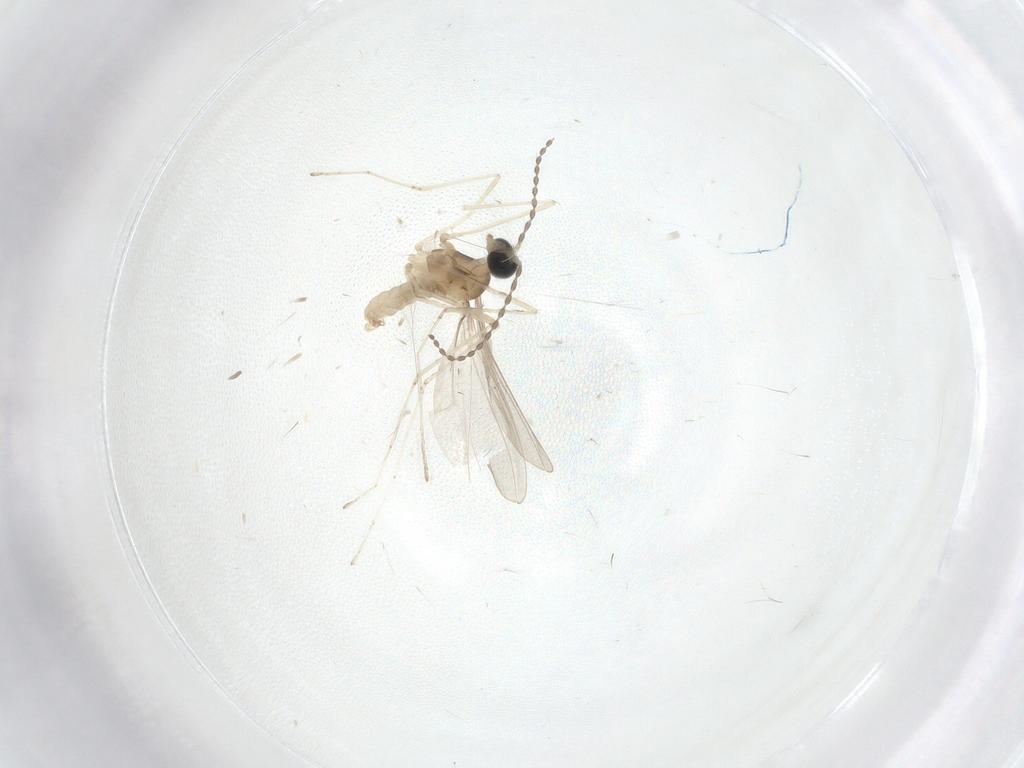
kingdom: Animalia
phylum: Arthropoda
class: Insecta
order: Diptera
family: Cecidomyiidae
